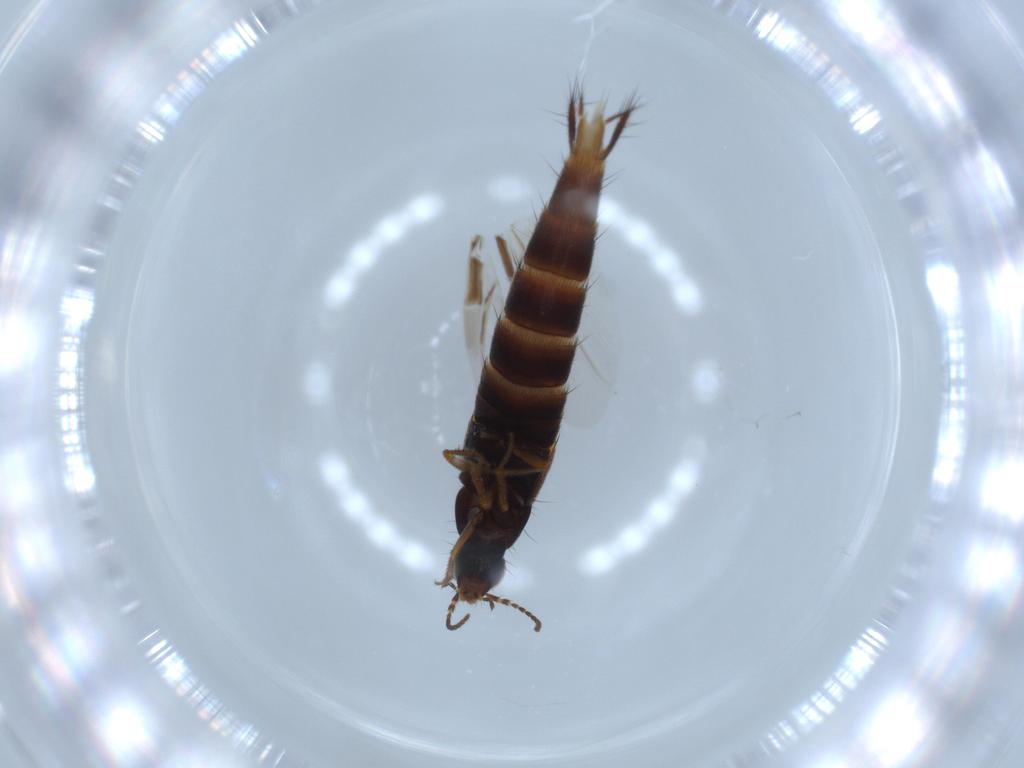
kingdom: Animalia
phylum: Arthropoda
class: Insecta
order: Coleoptera
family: Staphylinidae
